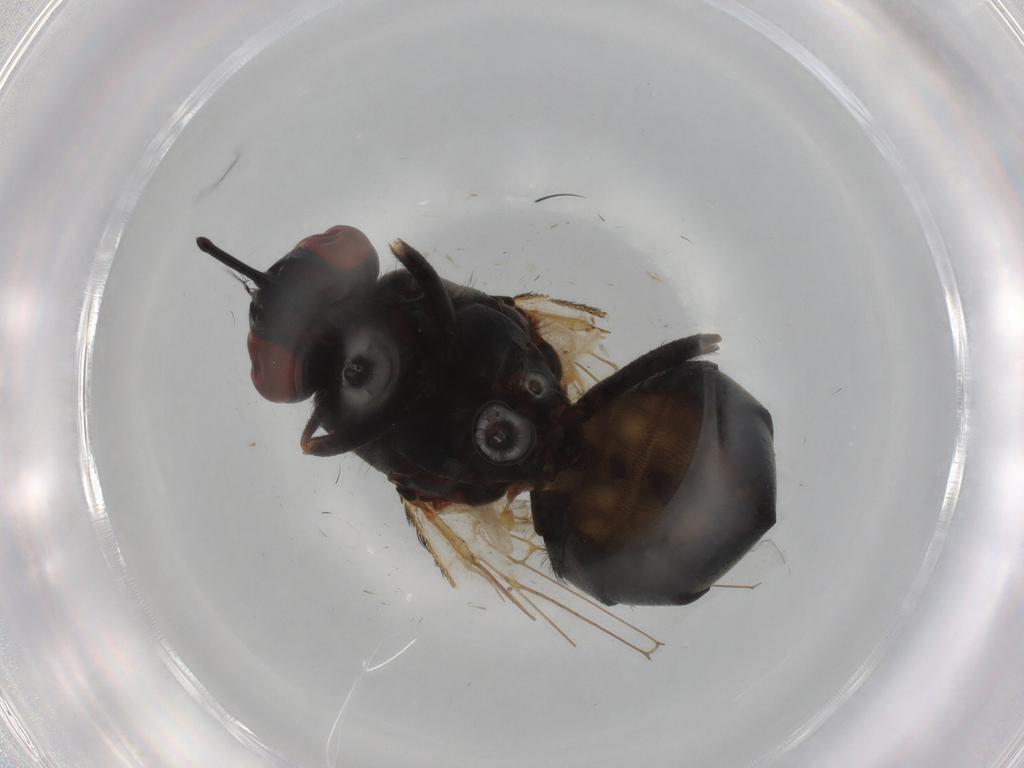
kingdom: Animalia
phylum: Arthropoda
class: Insecta
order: Diptera
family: Muscidae
